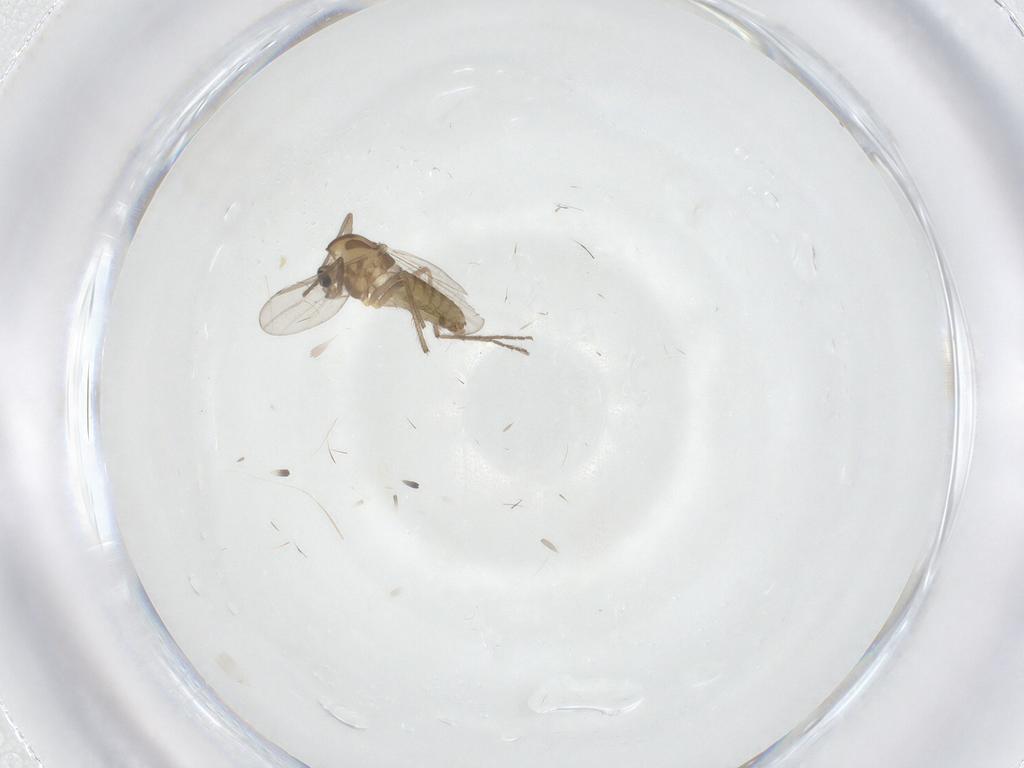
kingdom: Animalia
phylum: Arthropoda
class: Insecta
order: Diptera
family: Chironomidae
